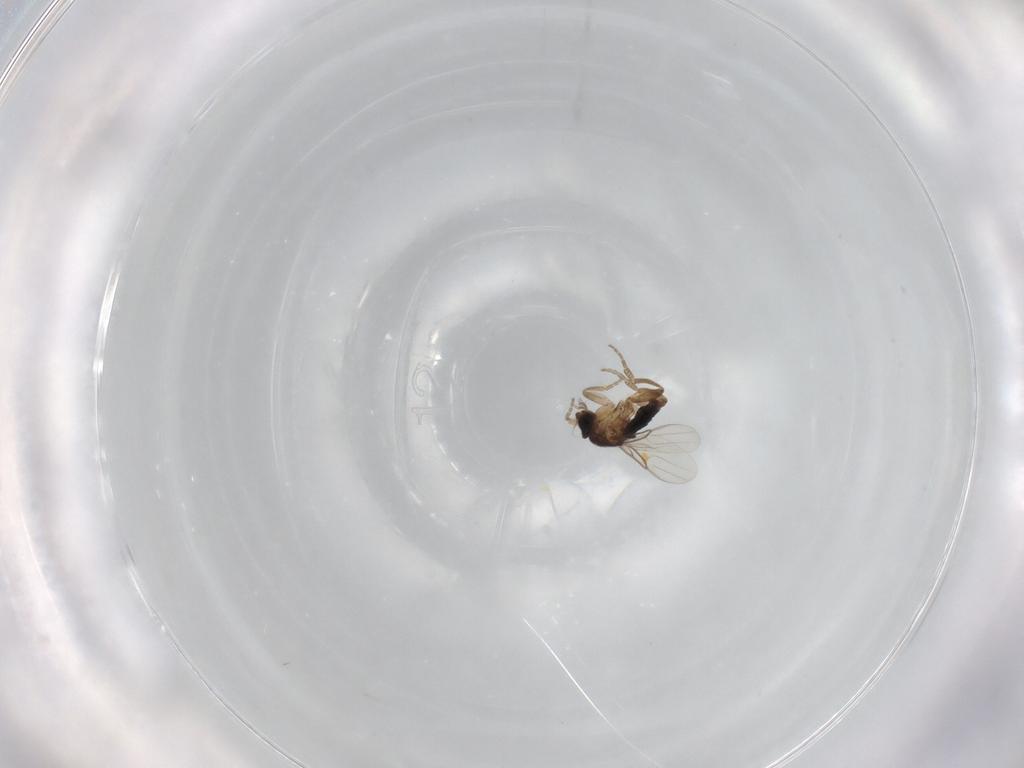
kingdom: Animalia
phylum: Arthropoda
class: Insecta
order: Diptera
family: Phoridae
